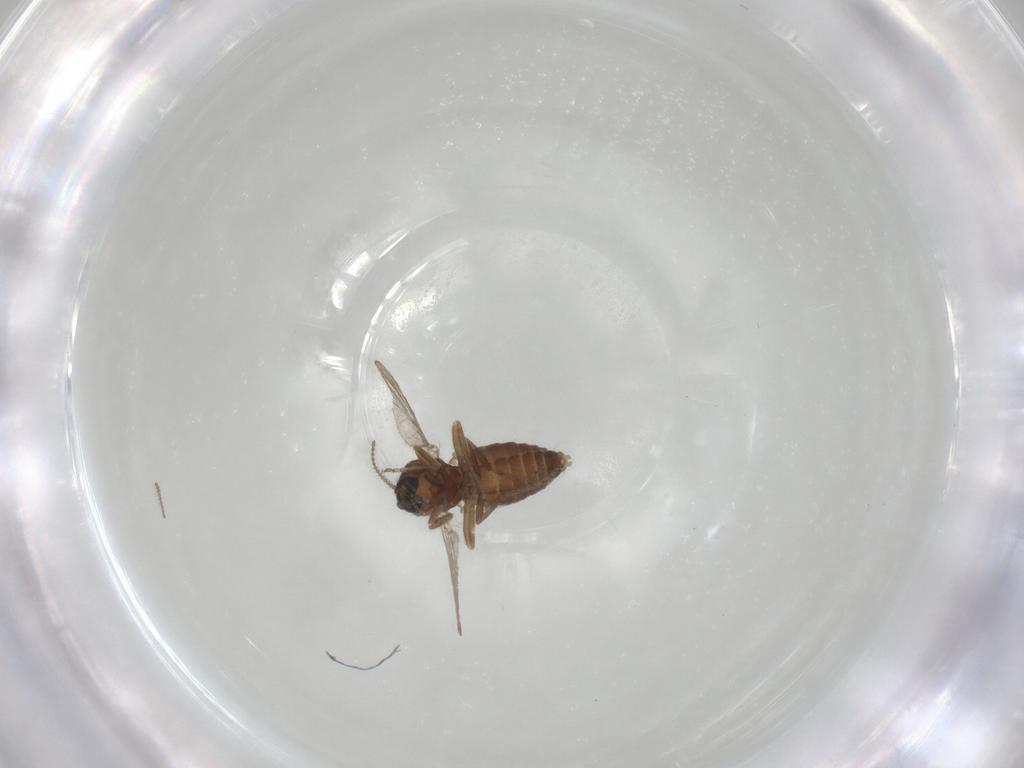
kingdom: Animalia
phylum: Arthropoda
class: Insecta
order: Diptera
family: Ceratopogonidae
